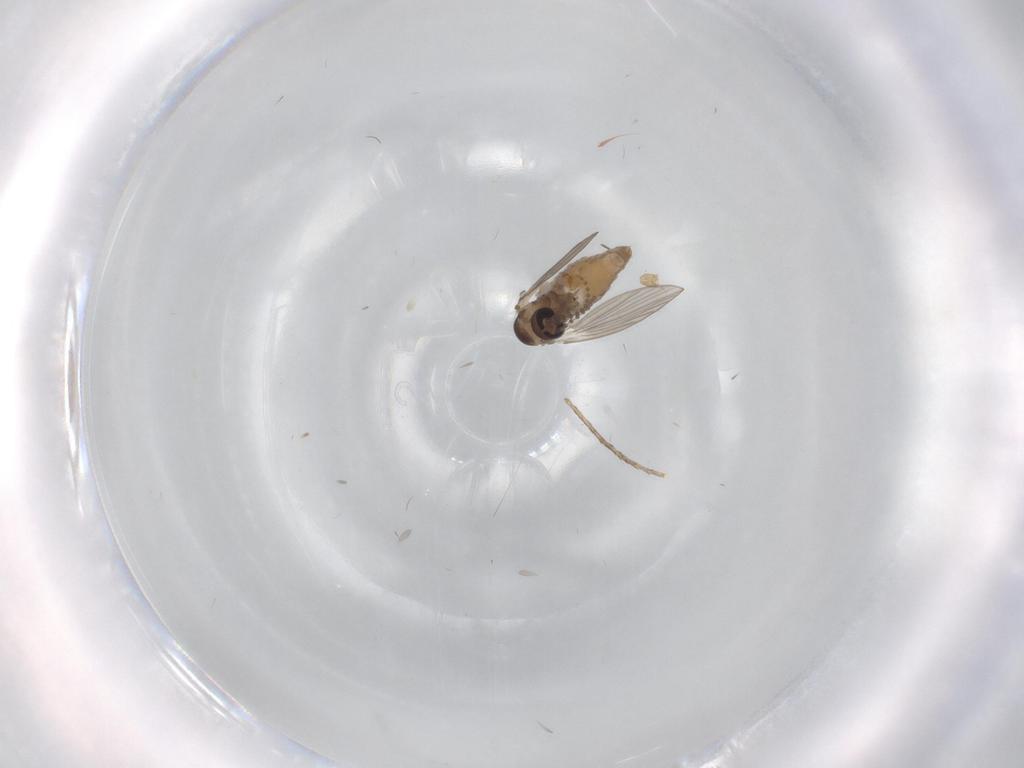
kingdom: Animalia
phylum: Arthropoda
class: Insecta
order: Diptera
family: Psychodidae
